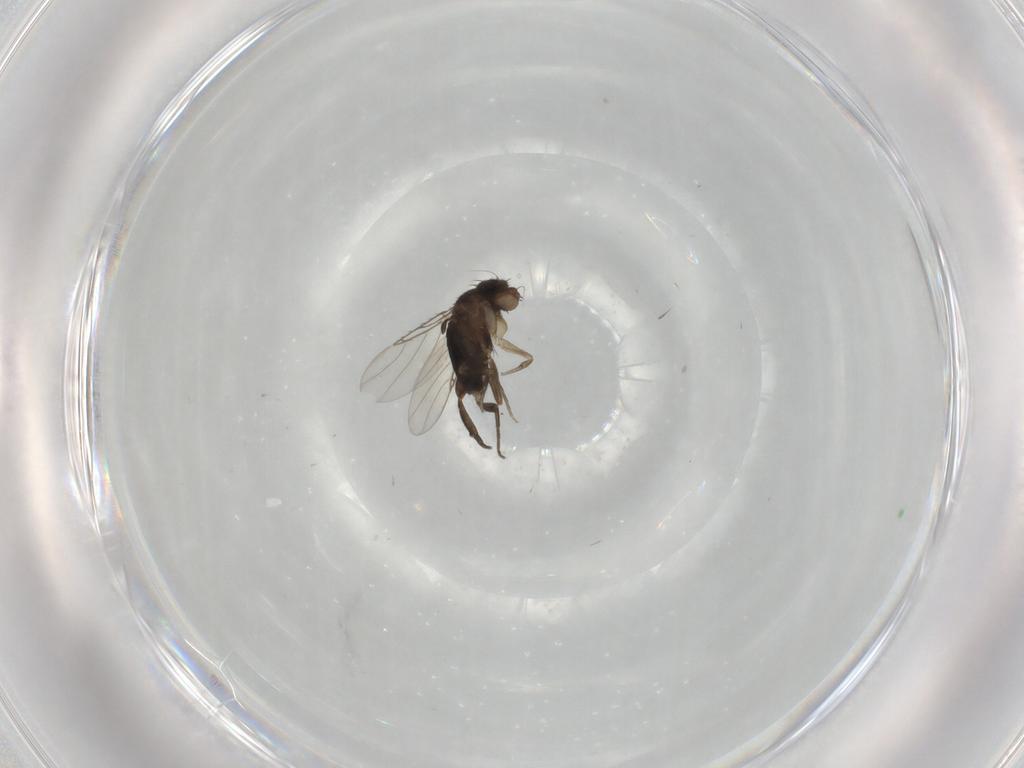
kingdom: Animalia
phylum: Arthropoda
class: Insecta
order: Diptera
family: Phoridae
